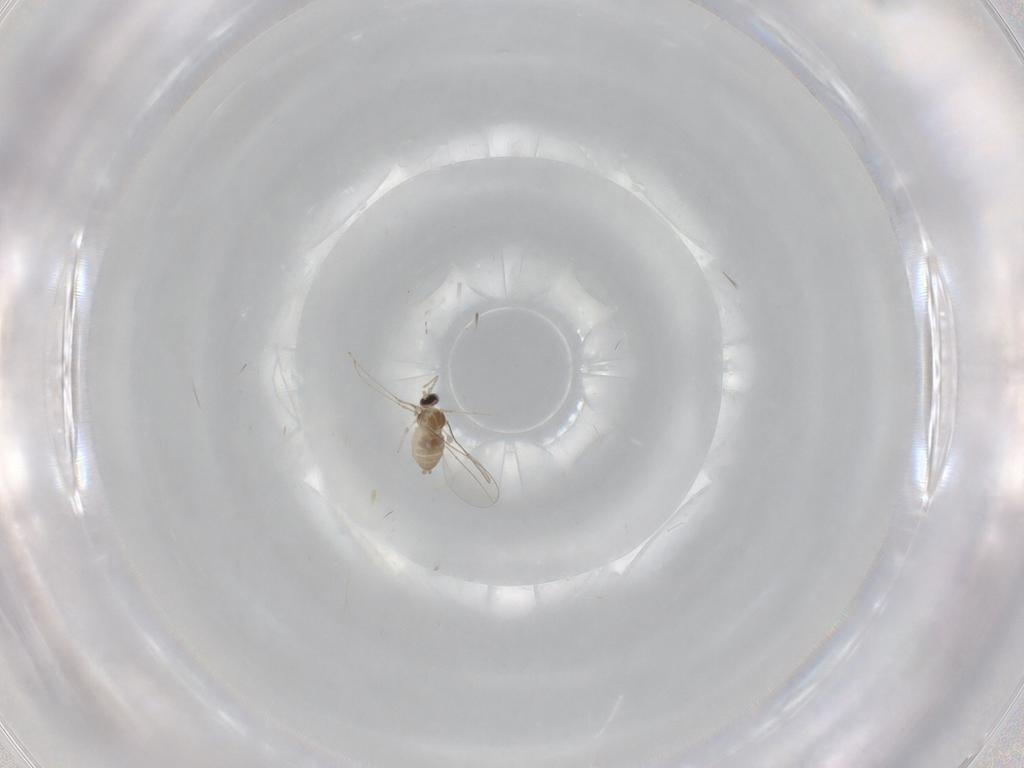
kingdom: Animalia
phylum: Arthropoda
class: Insecta
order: Diptera
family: Cecidomyiidae
